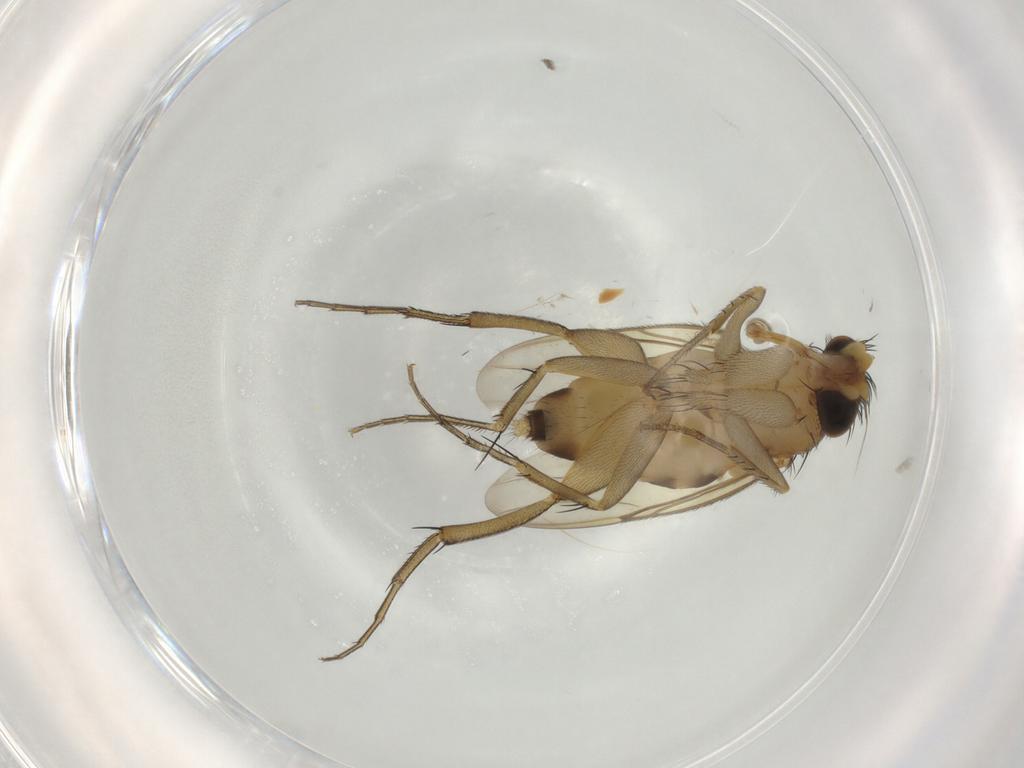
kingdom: Animalia
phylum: Arthropoda
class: Insecta
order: Diptera
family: Phoridae
